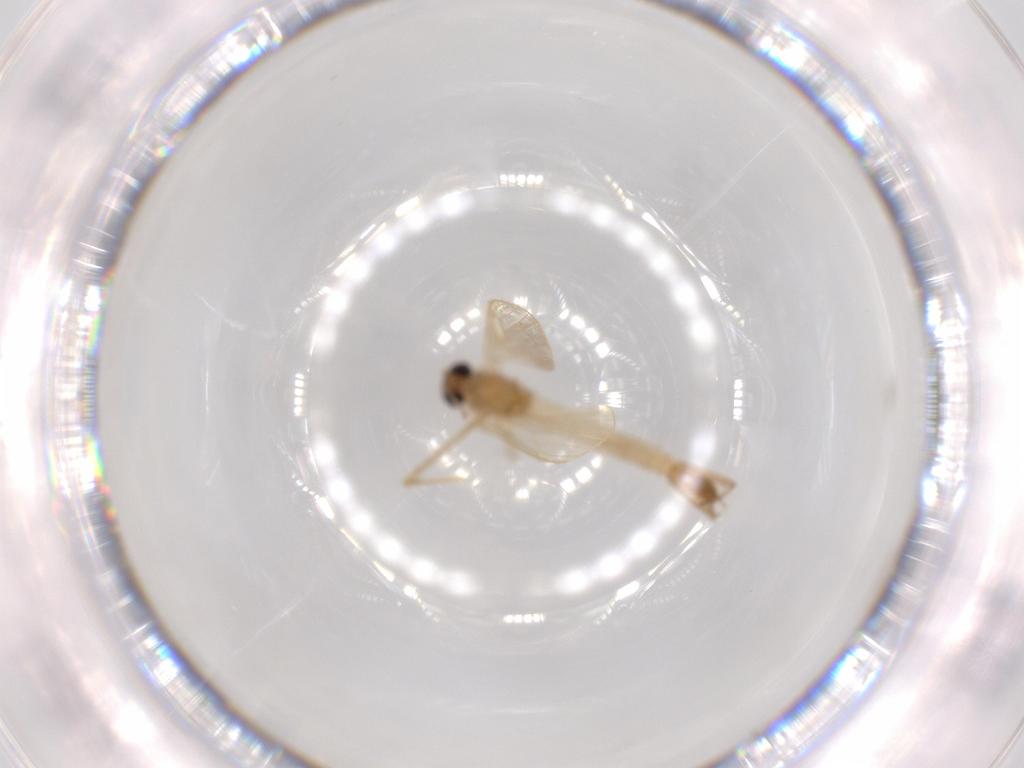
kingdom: Animalia
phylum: Arthropoda
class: Insecta
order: Diptera
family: Psychodidae
